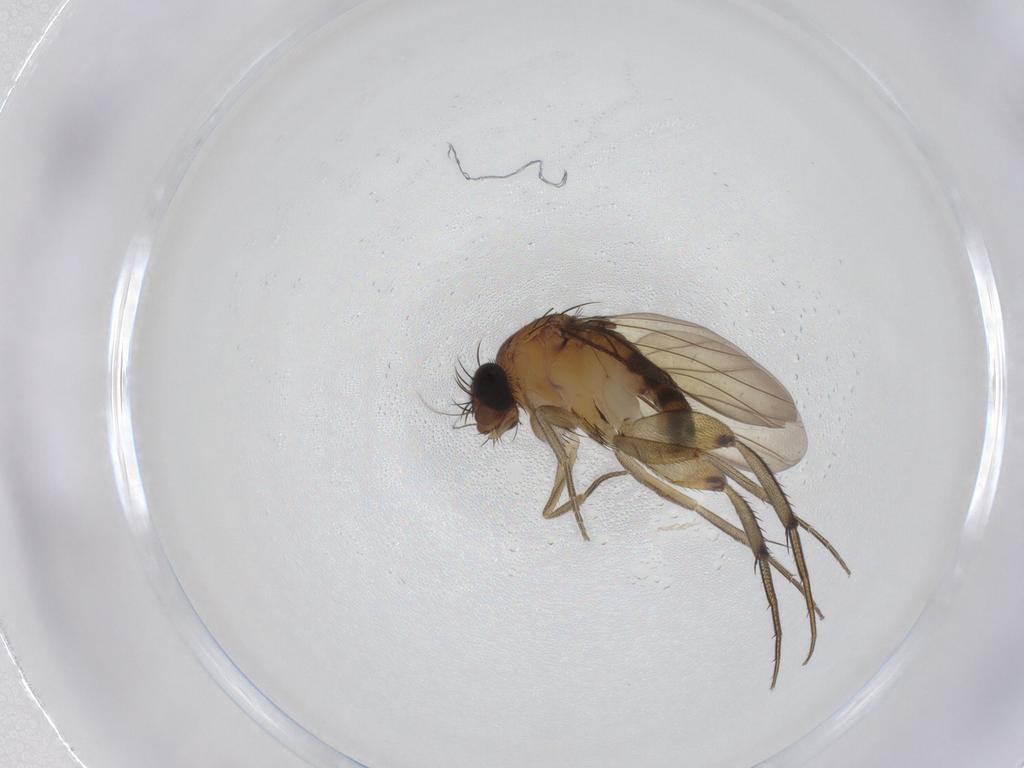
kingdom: Animalia
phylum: Arthropoda
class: Insecta
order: Diptera
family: Phoridae
